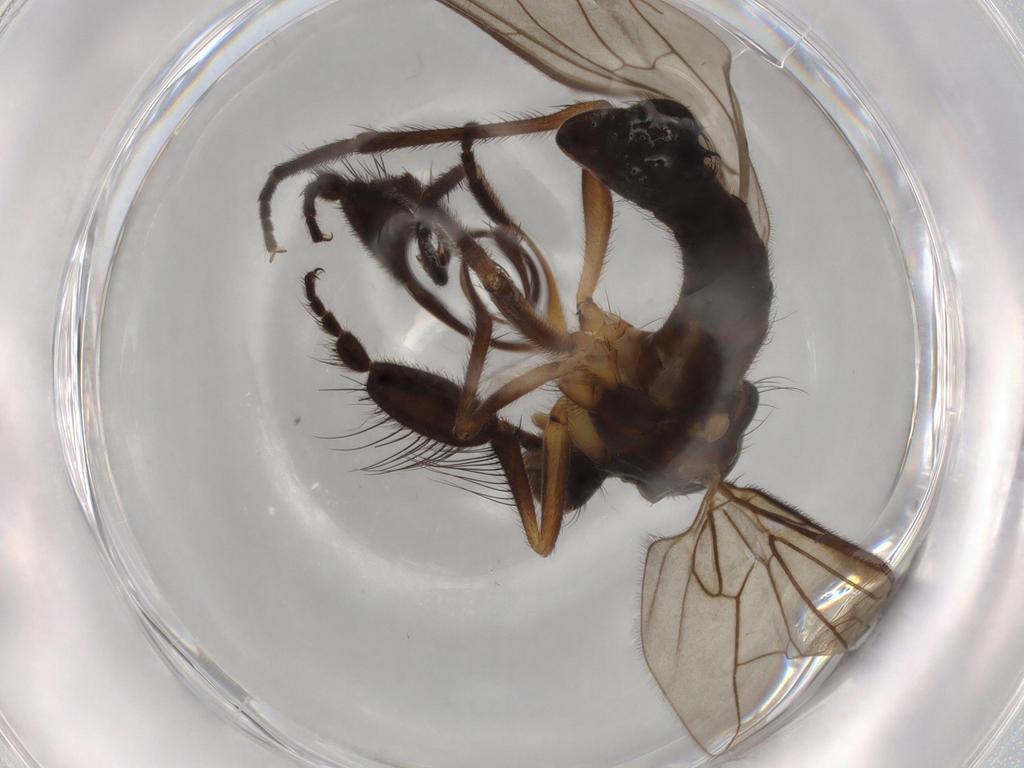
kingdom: Animalia
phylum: Arthropoda
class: Insecta
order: Diptera
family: Empididae
